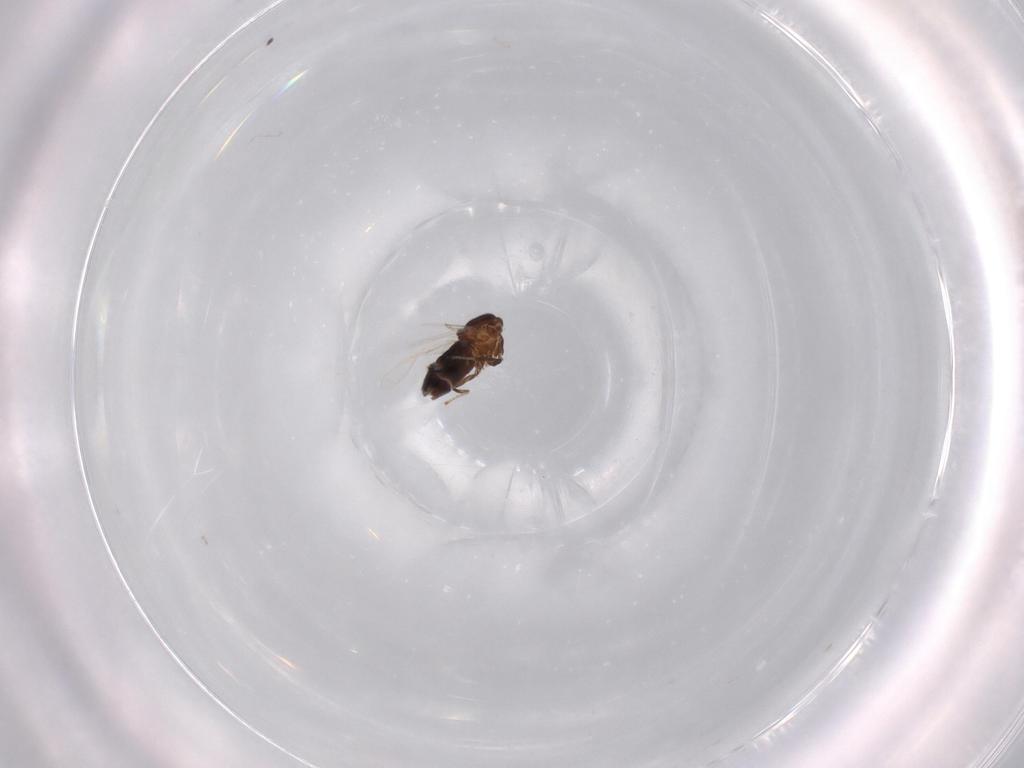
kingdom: Animalia
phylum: Arthropoda
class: Insecta
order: Diptera
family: Scatopsidae
